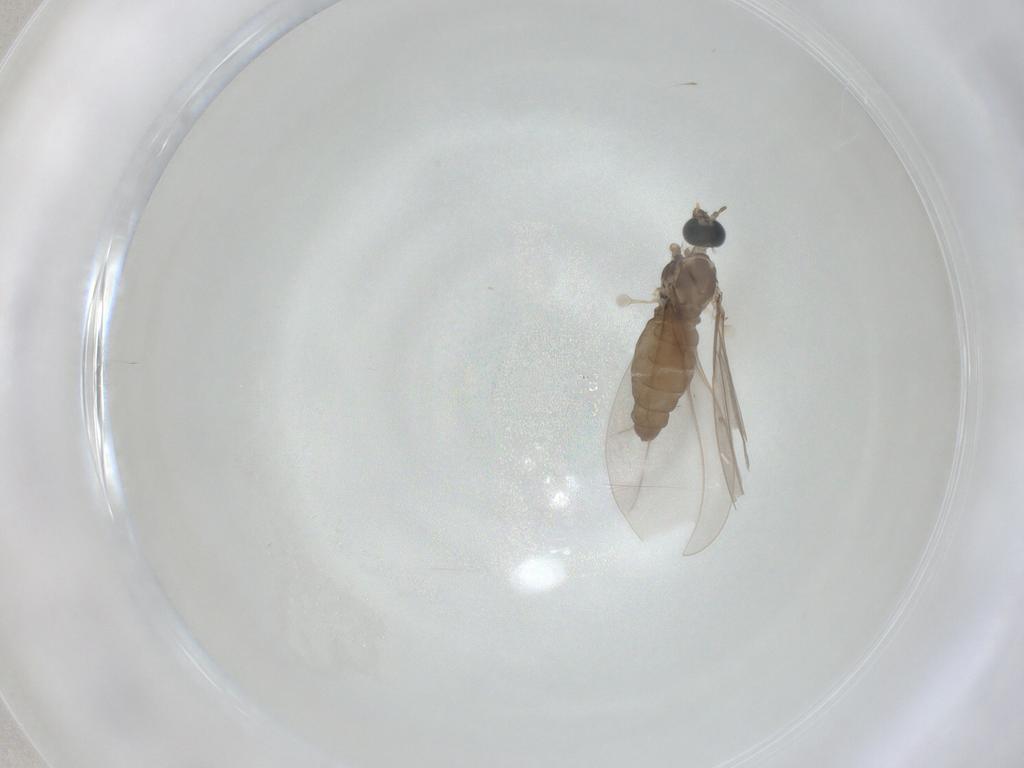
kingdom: Animalia
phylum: Arthropoda
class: Insecta
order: Diptera
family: Cecidomyiidae
